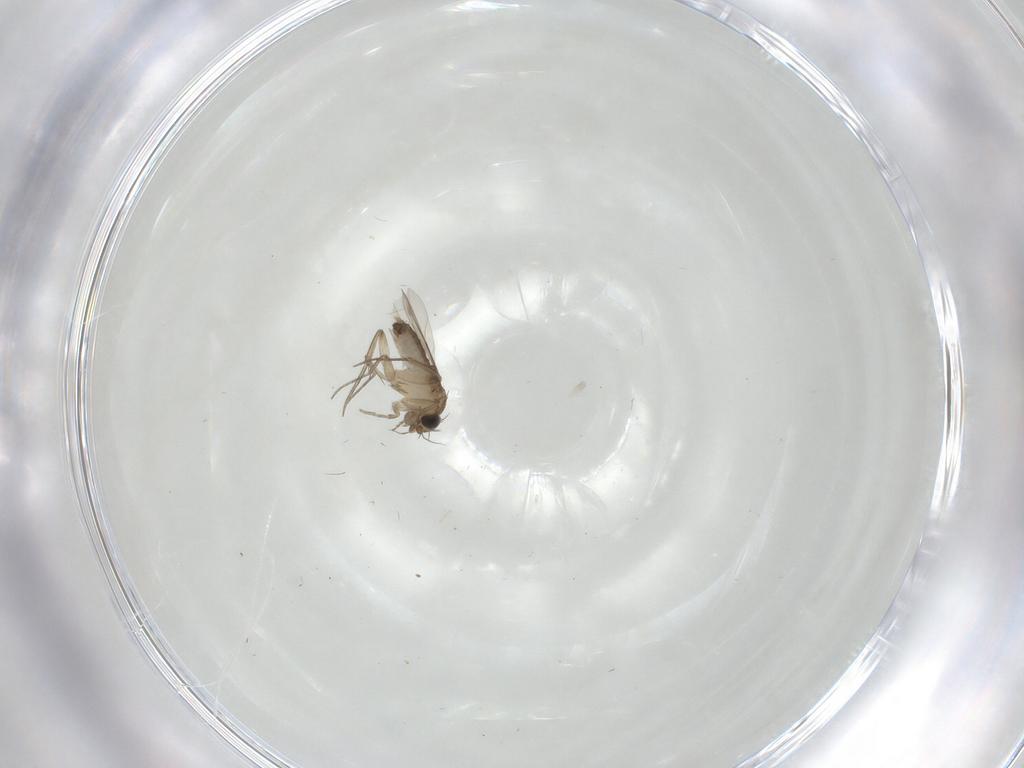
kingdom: Animalia
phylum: Arthropoda
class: Insecta
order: Diptera
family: Phoridae
